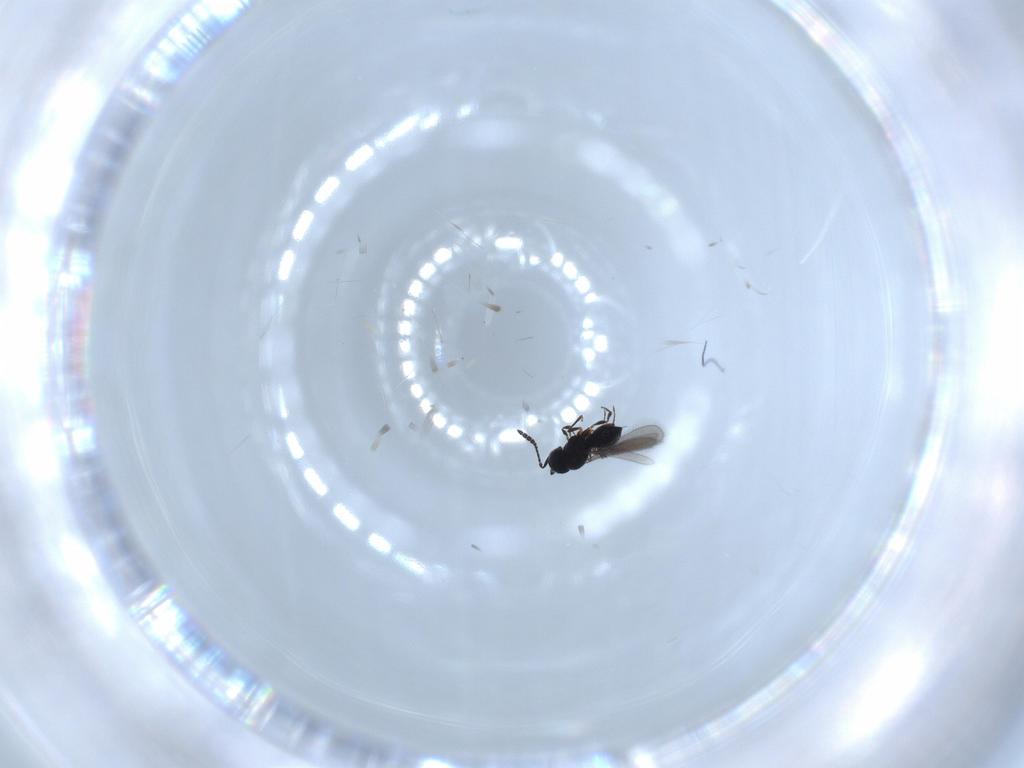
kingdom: Animalia
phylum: Arthropoda
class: Insecta
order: Hymenoptera
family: Scelionidae
